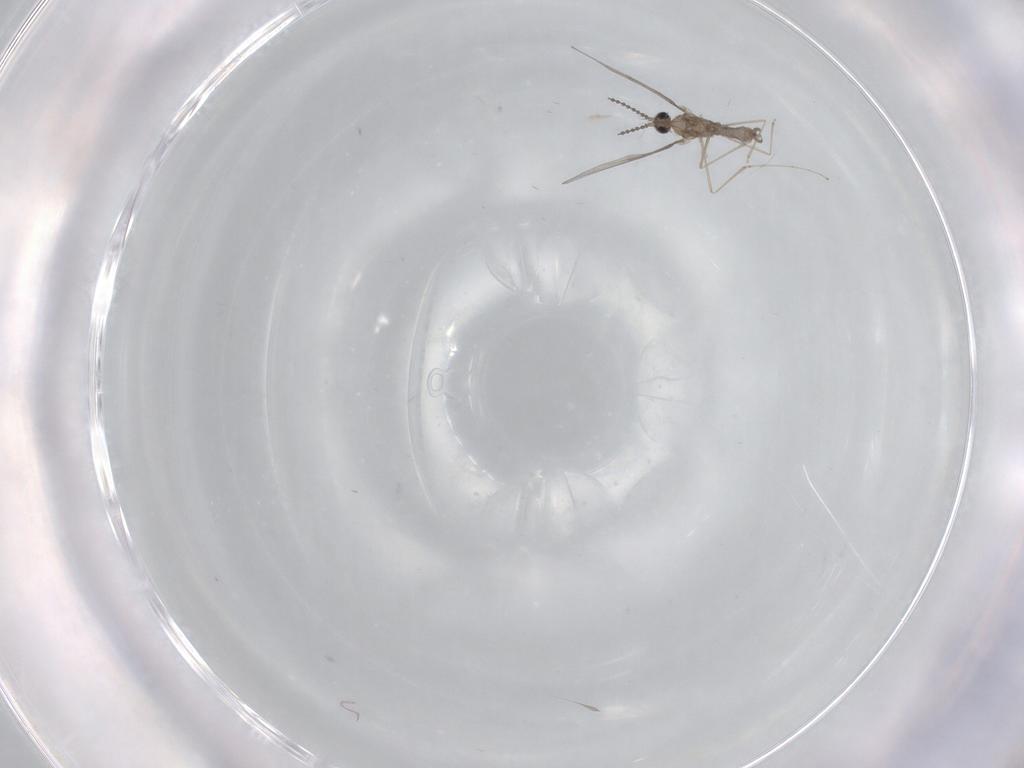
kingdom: Animalia
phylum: Arthropoda
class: Insecta
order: Diptera
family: Cecidomyiidae
